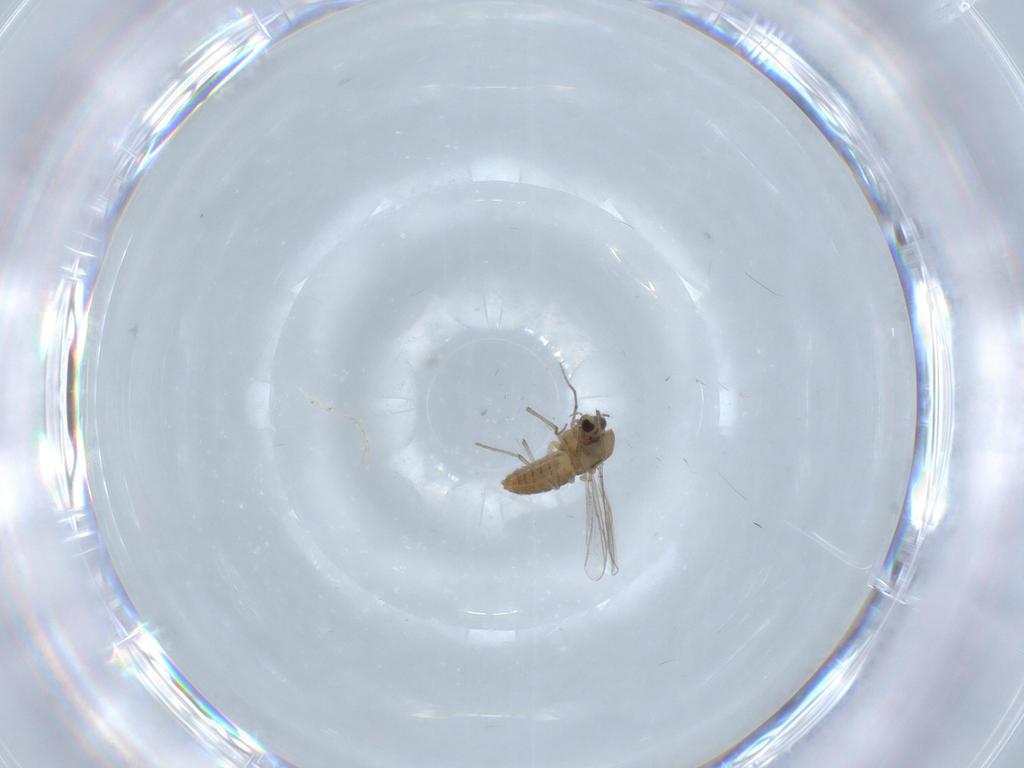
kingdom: Animalia
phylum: Arthropoda
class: Insecta
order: Diptera
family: Chironomidae
